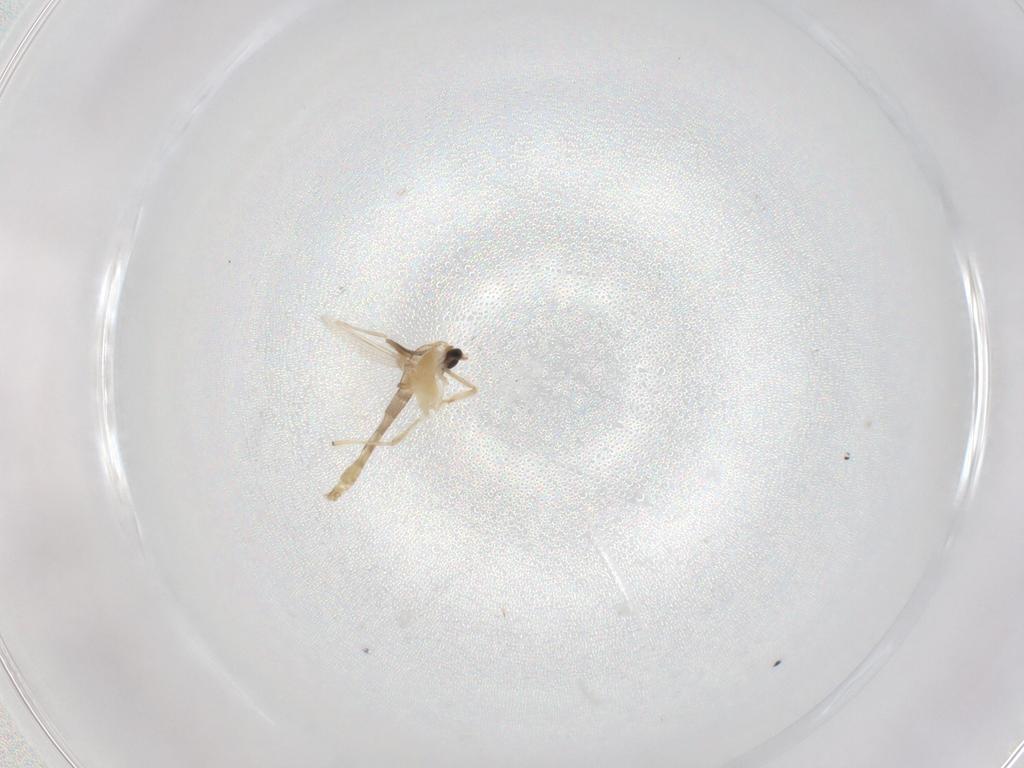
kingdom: Animalia
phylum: Arthropoda
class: Insecta
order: Diptera
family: Chironomidae
